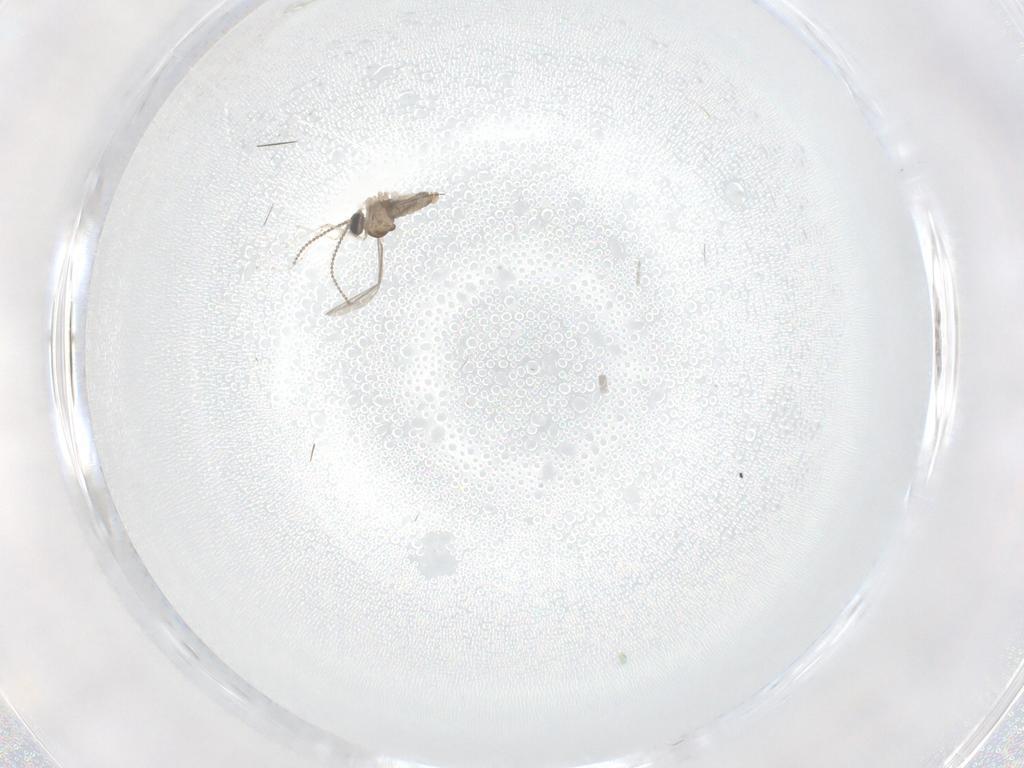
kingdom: Animalia
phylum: Arthropoda
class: Insecta
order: Diptera
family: Cecidomyiidae
